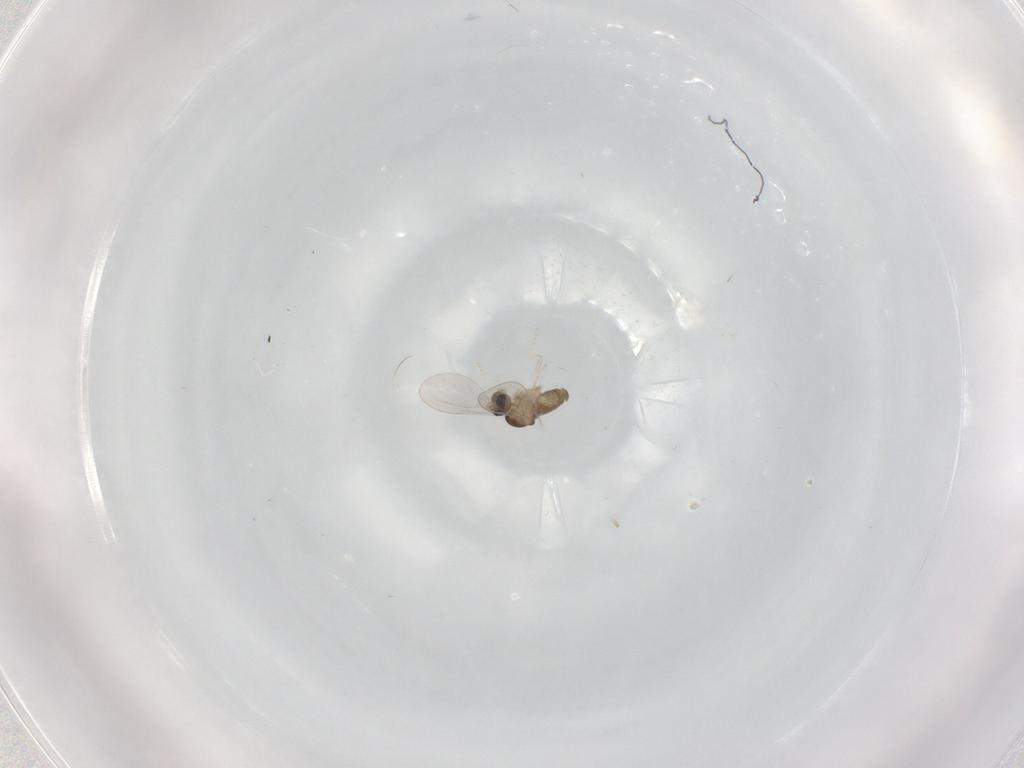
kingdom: Animalia
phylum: Arthropoda
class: Insecta
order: Diptera
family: Cecidomyiidae
